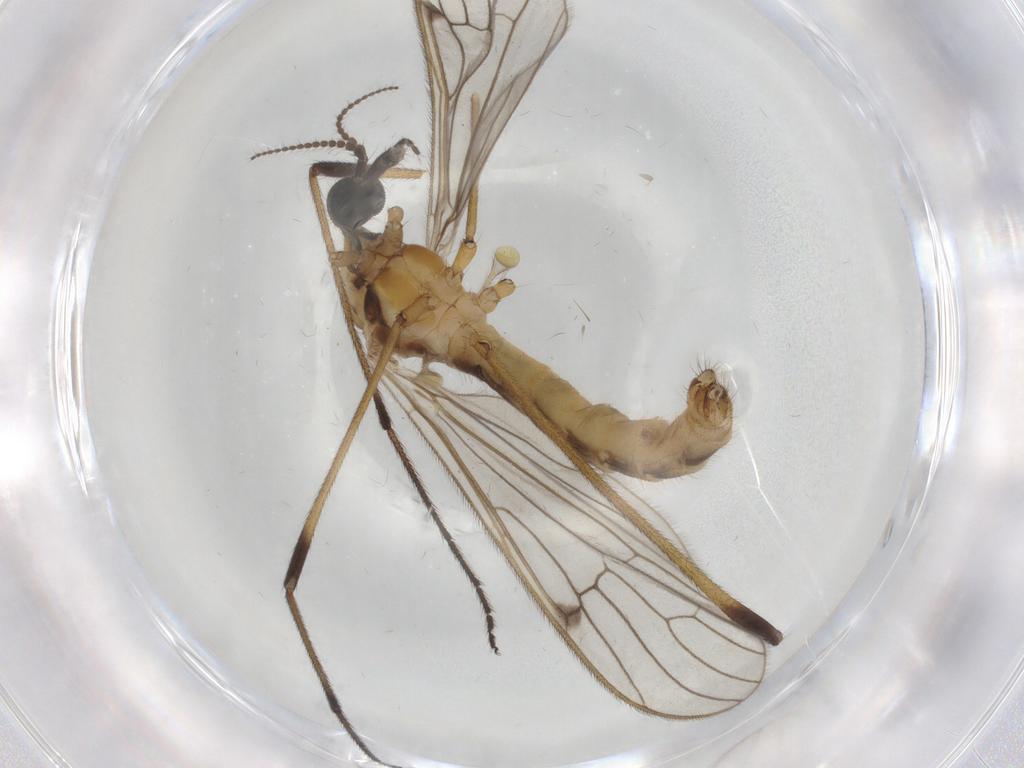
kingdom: Animalia
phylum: Arthropoda
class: Insecta
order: Diptera
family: Limoniidae
